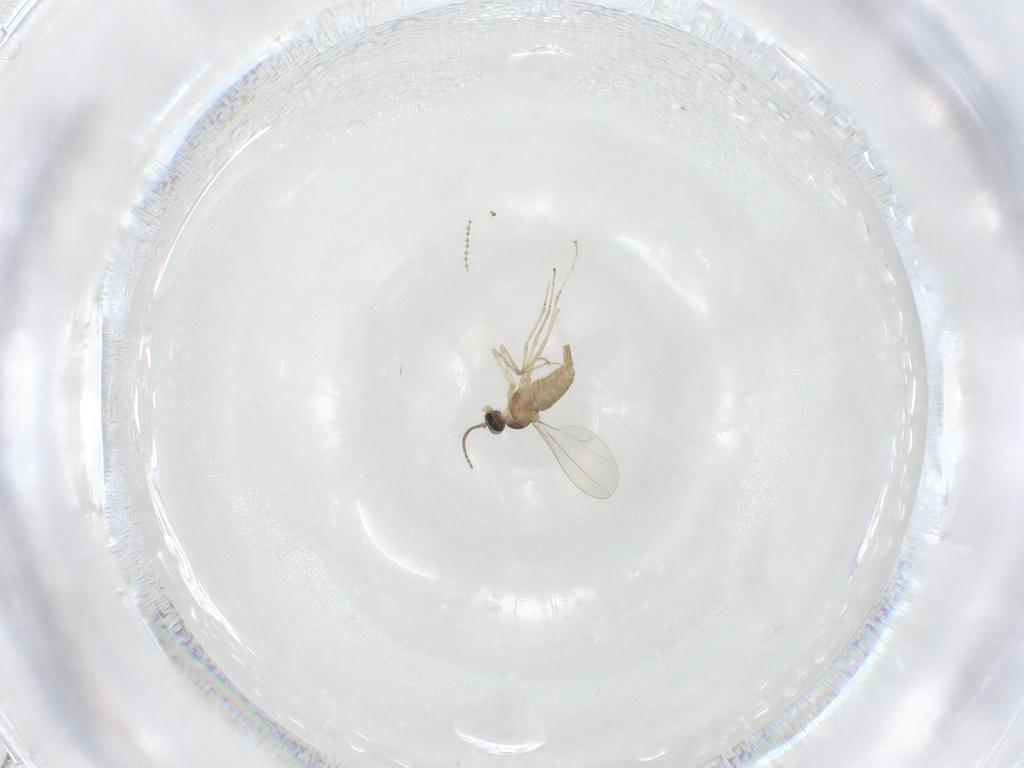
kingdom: Animalia
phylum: Arthropoda
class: Insecta
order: Diptera
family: Cecidomyiidae
